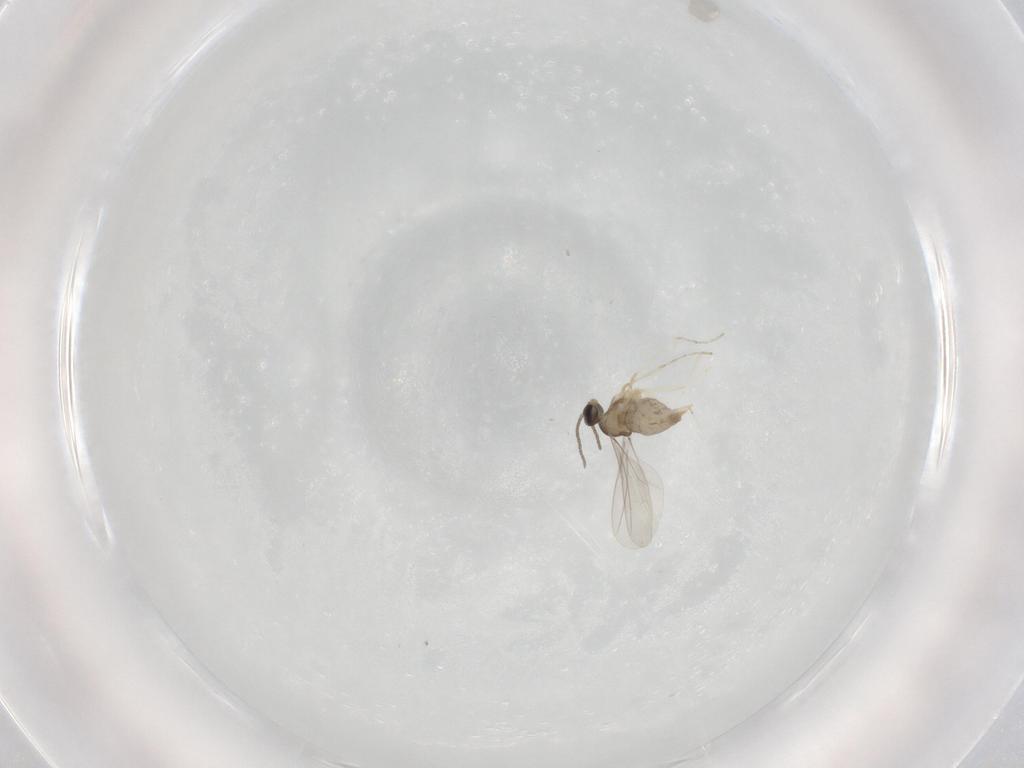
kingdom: Animalia
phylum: Arthropoda
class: Insecta
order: Diptera
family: Cecidomyiidae
